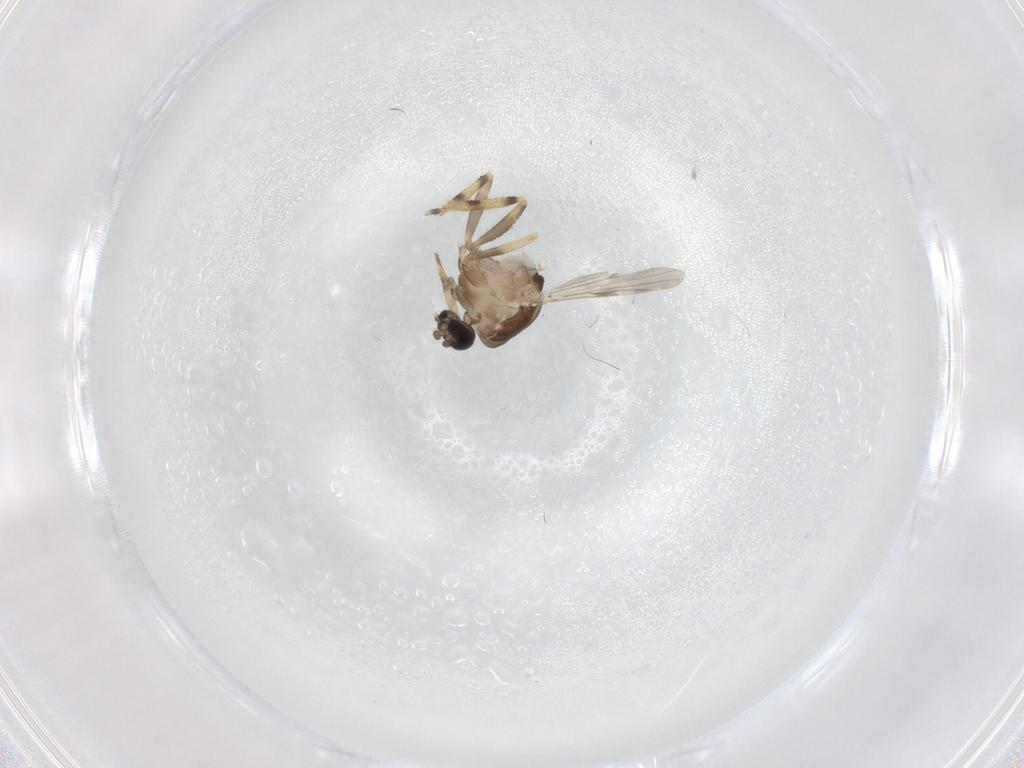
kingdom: Animalia
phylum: Arthropoda
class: Insecta
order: Diptera
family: Ceratopogonidae
